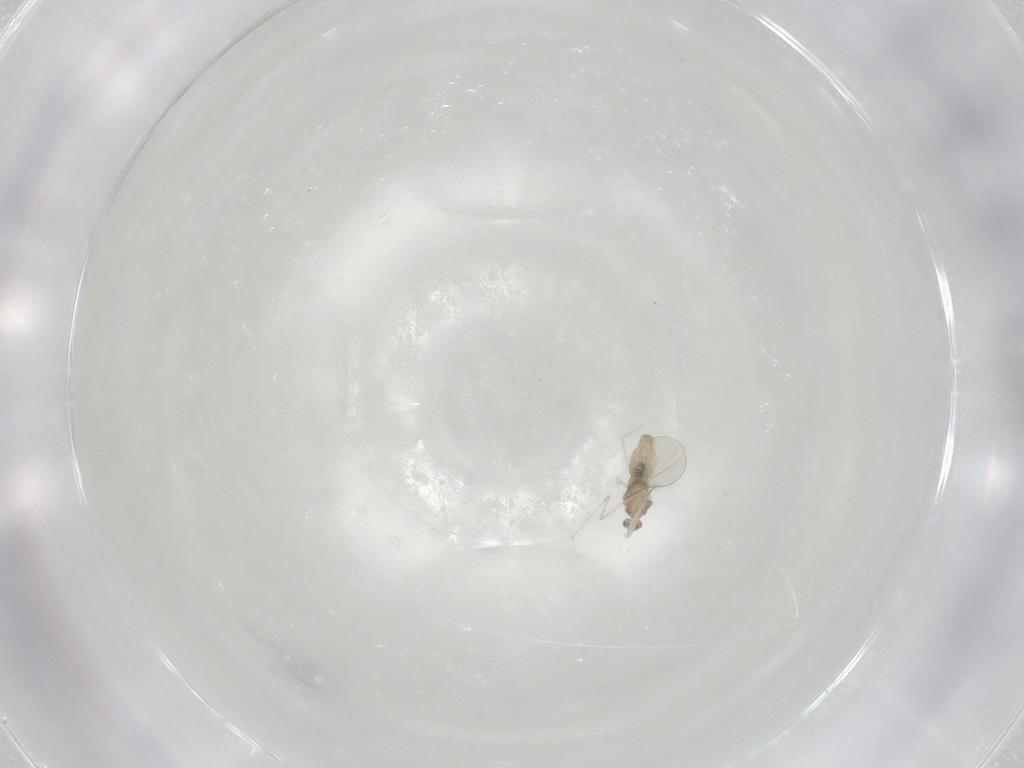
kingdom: Animalia
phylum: Arthropoda
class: Insecta
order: Diptera
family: Cecidomyiidae
